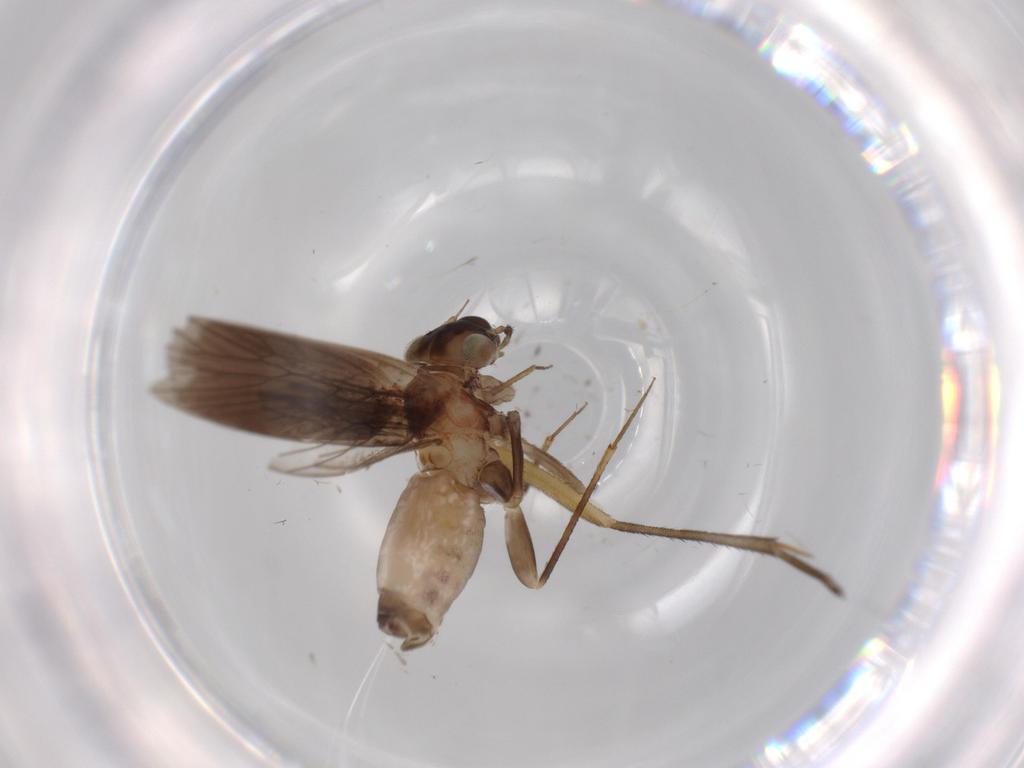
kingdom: Animalia
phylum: Arthropoda
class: Insecta
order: Psocodea
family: Lepidopsocidae
